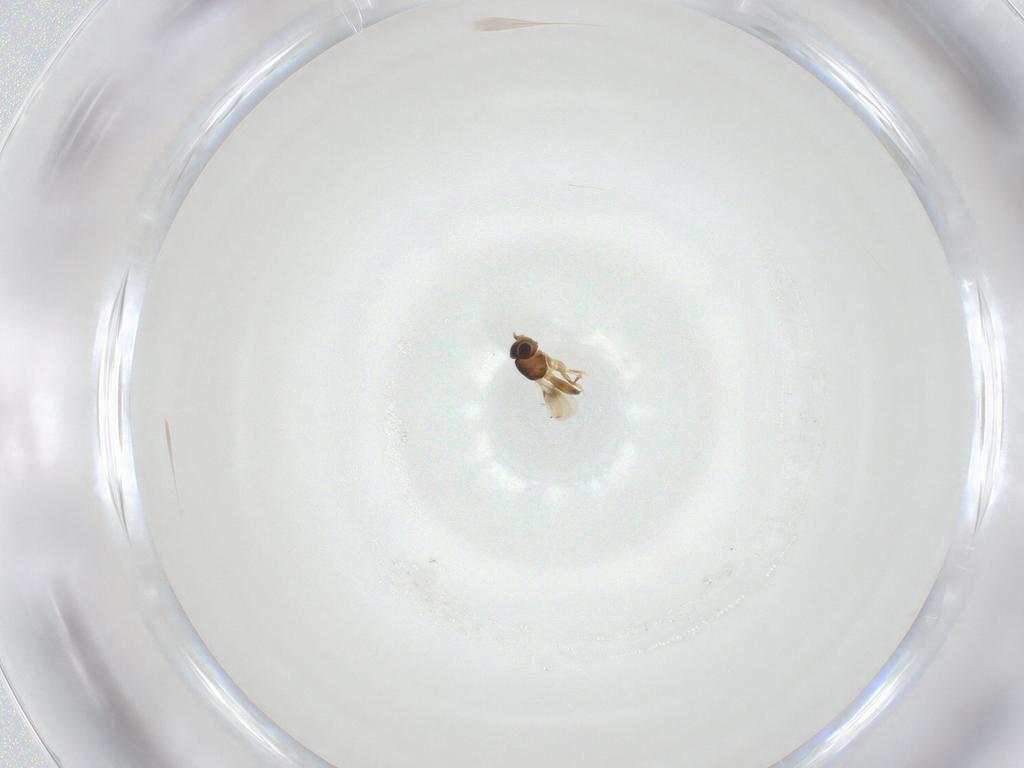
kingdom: Animalia
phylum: Arthropoda
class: Insecta
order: Hymenoptera
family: Scelionidae
